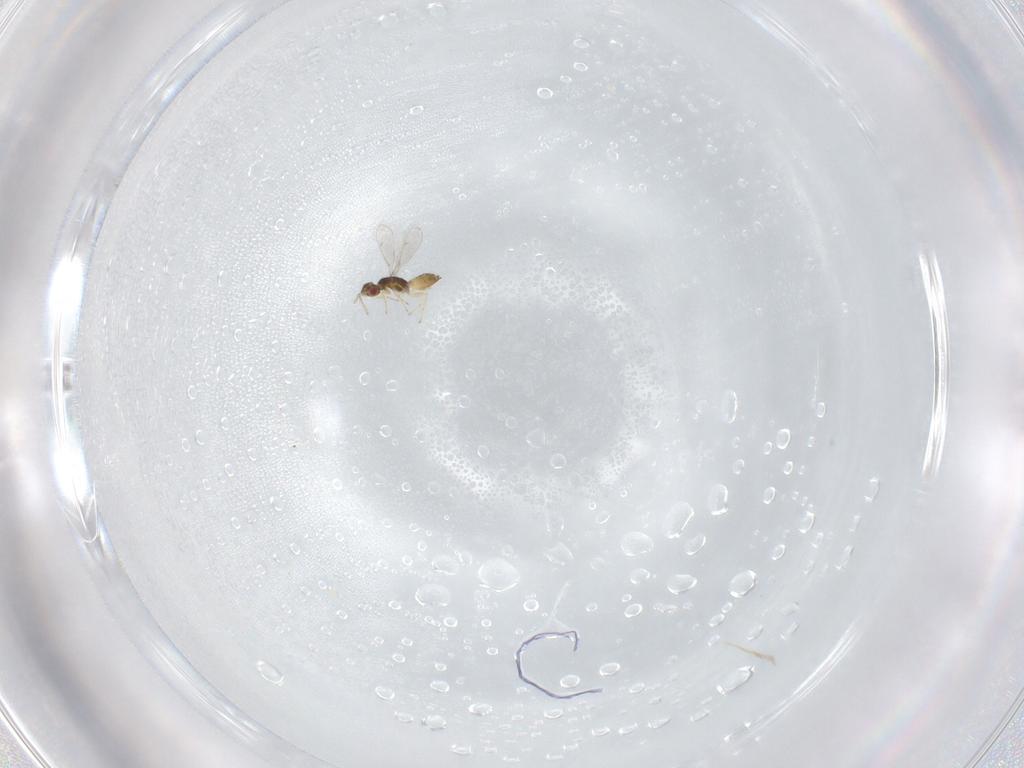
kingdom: Animalia
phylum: Arthropoda
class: Insecta
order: Hymenoptera
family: Eulophidae
